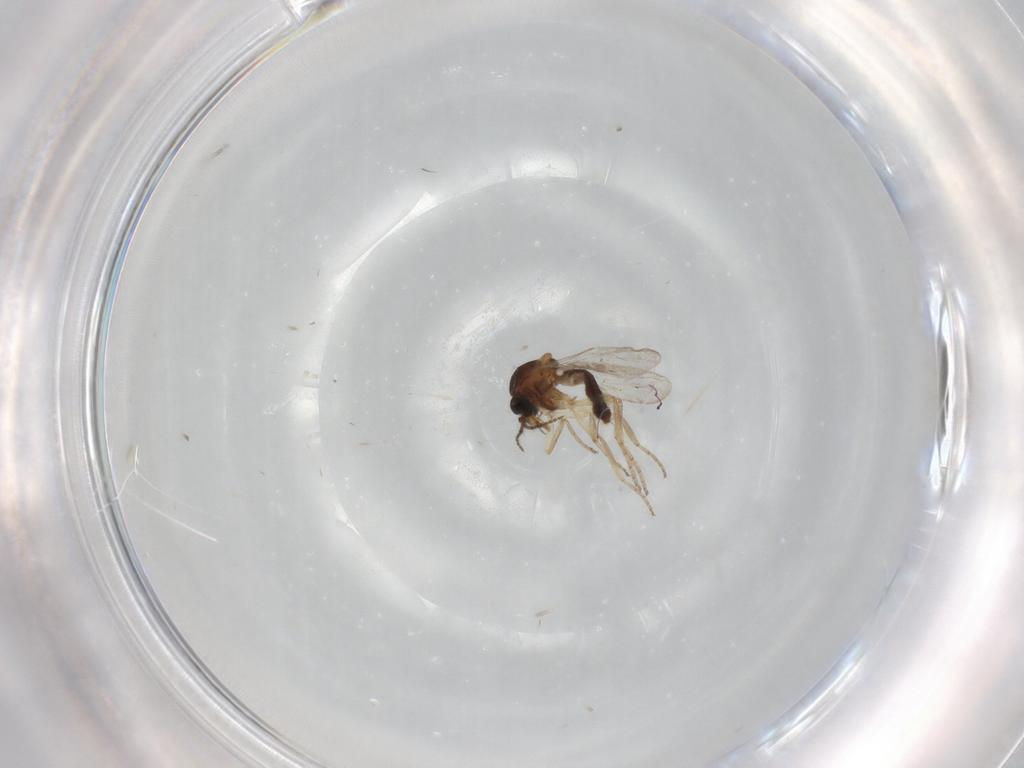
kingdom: Animalia
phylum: Arthropoda
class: Insecta
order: Diptera
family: Ceratopogonidae
